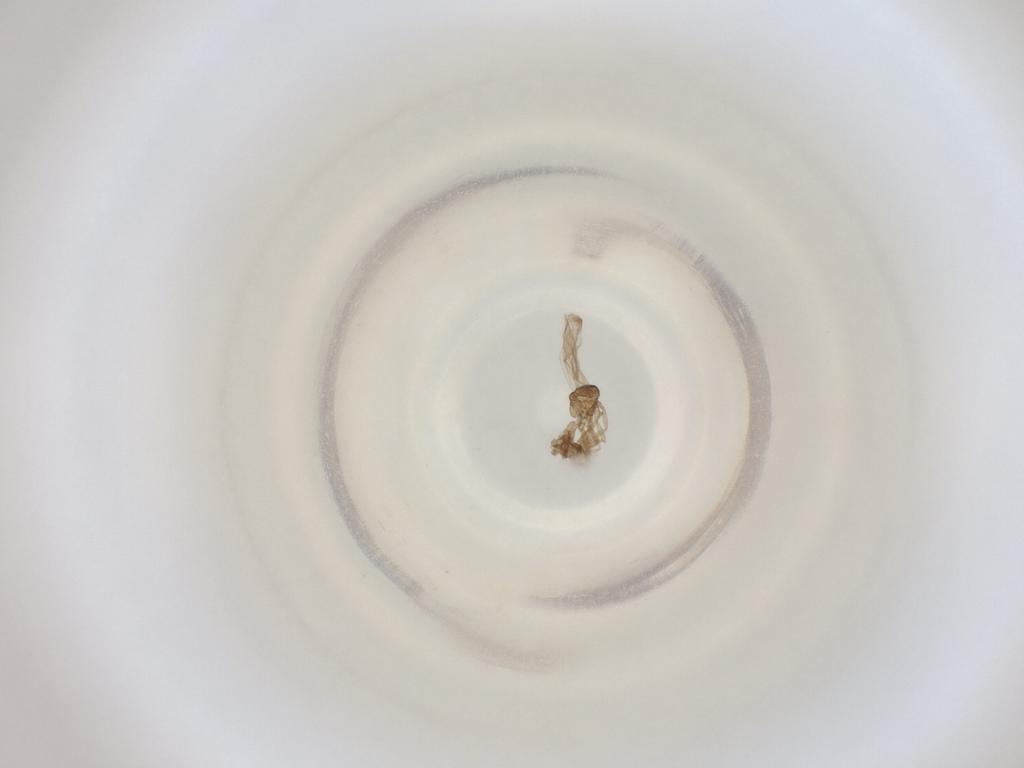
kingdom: Animalia
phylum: Arthropoda
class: Insecta
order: Diptera
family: Cecidomyiidae
